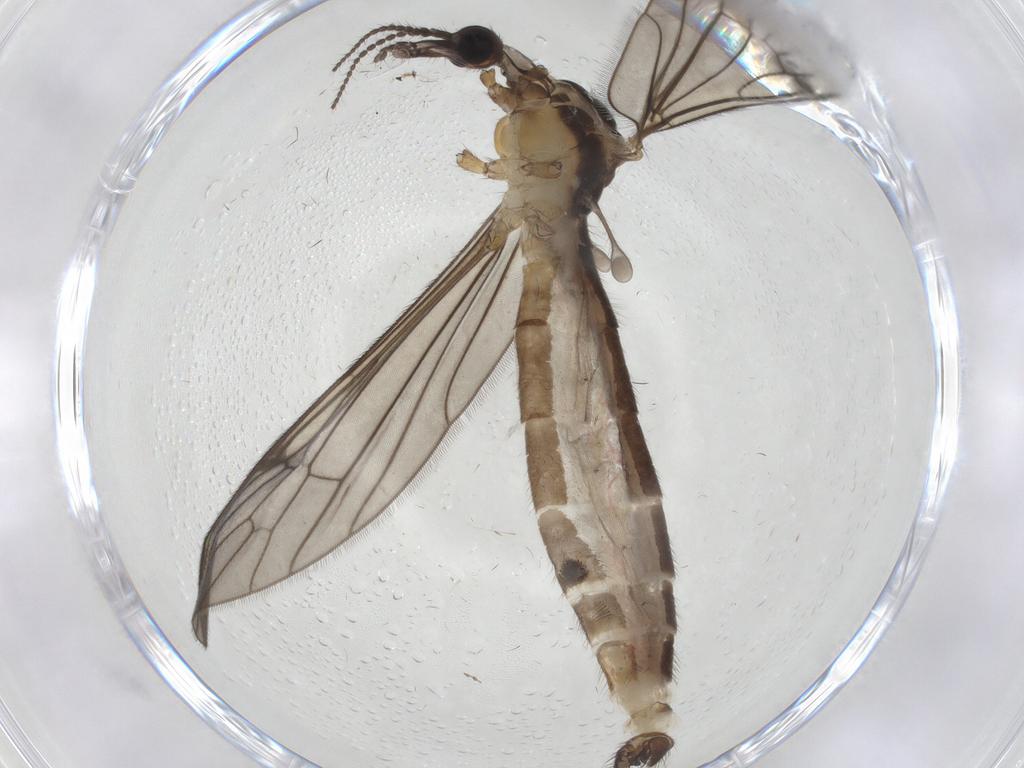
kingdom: Animalia
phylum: Arthropoda
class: Insecta
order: Diptera
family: Limoniidae
